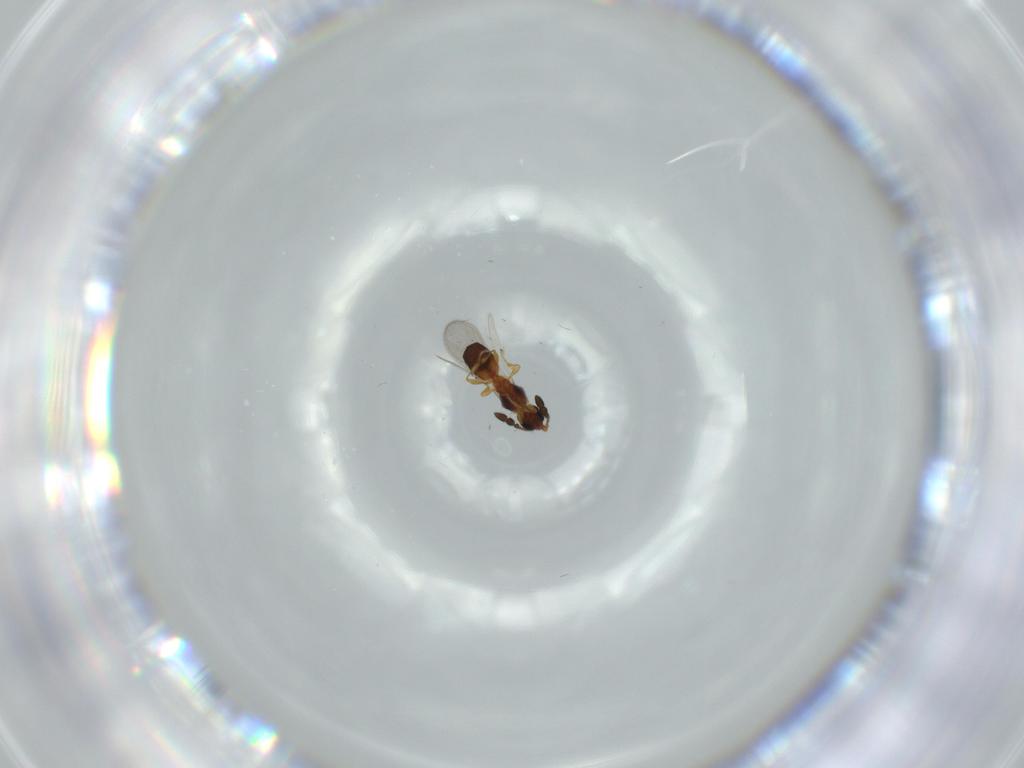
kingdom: Animalia
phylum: Arthropoda
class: Insecta
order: Hymenoptera
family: Diapriidae
